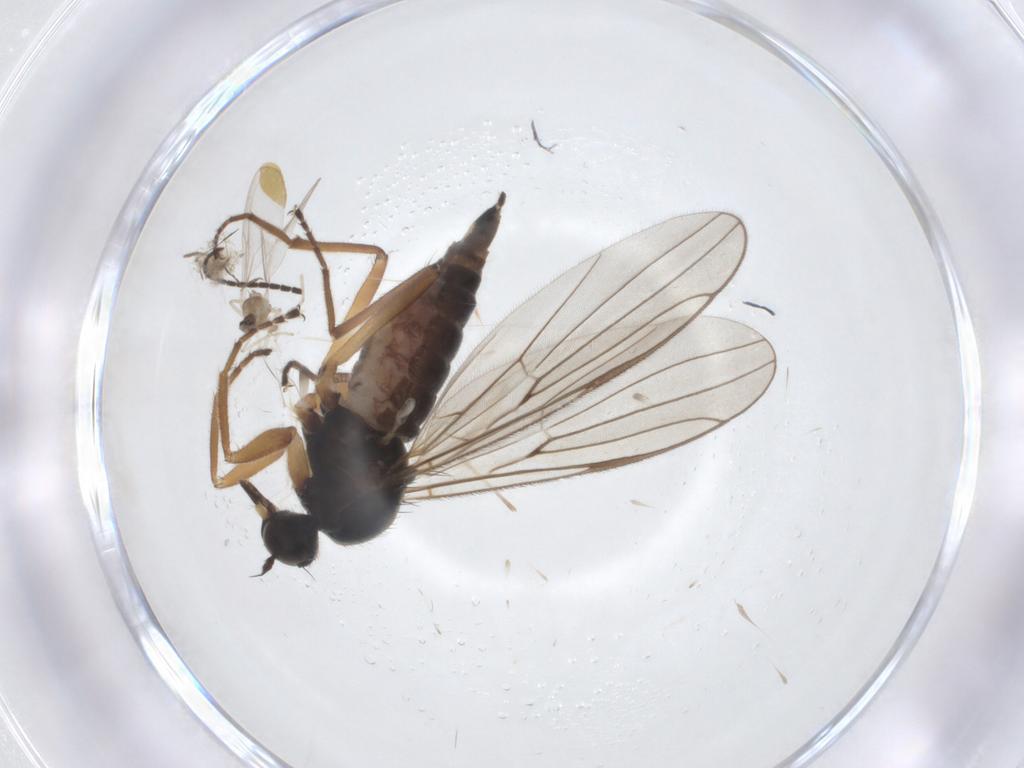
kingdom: Animalia
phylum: Arthropoda
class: Insecta
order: Diptera
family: Hybotidae
